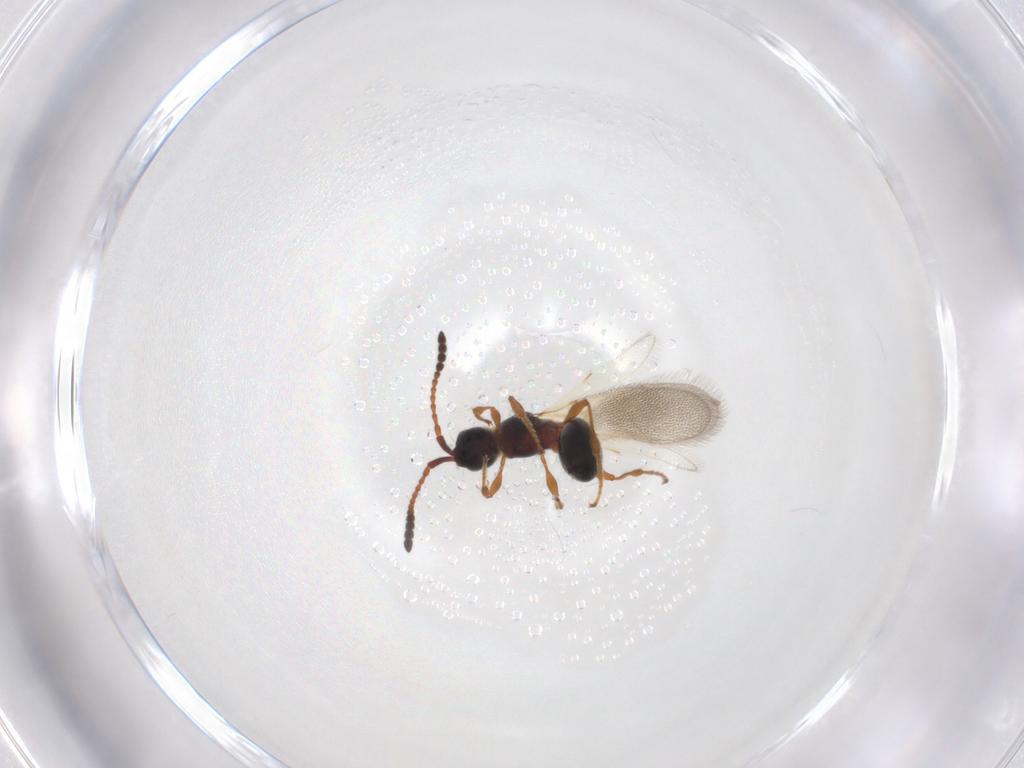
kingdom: Animalia
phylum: Arthropoda
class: Insecta
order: Hymenoptera
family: Diapriidae
